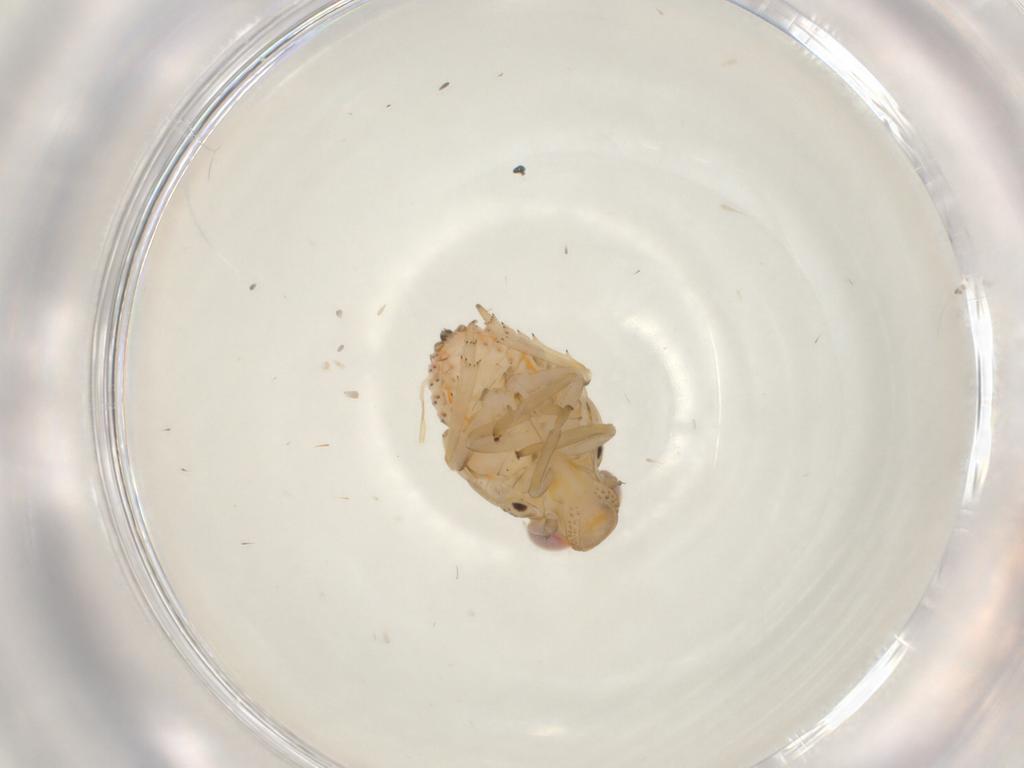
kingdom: Animalia
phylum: Arthropoda
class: Insecta
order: Hemiptera
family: Issidae
